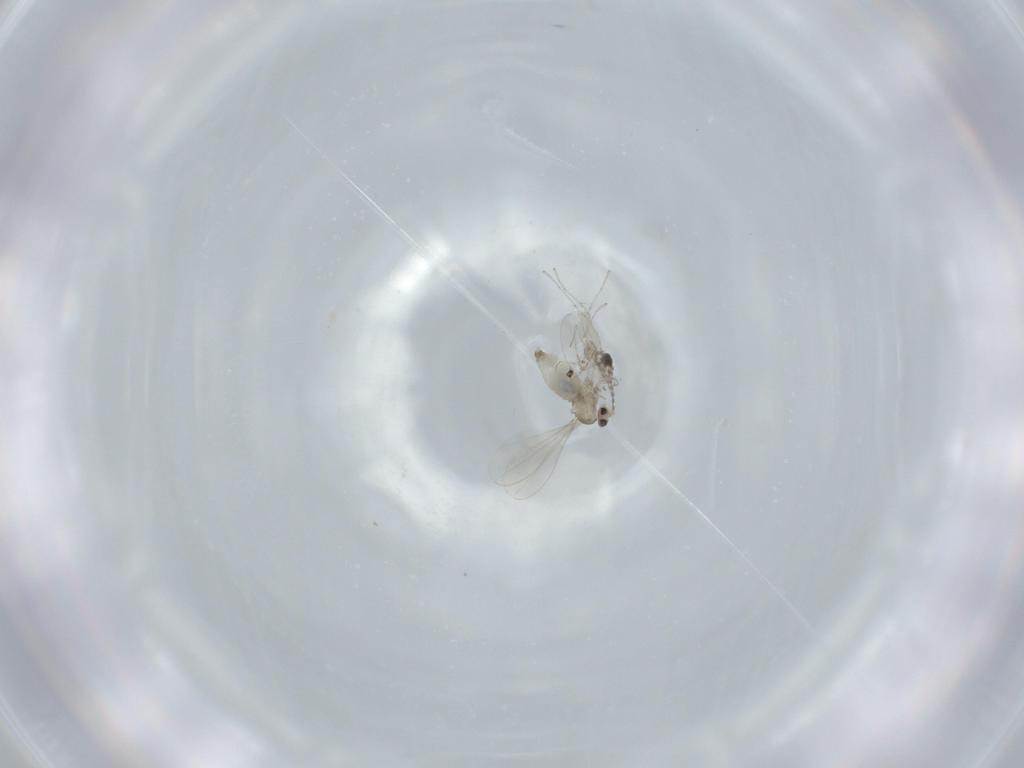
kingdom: Animalia
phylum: Arthropoda
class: Insecta
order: Diptera
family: Cecidomyiidae
